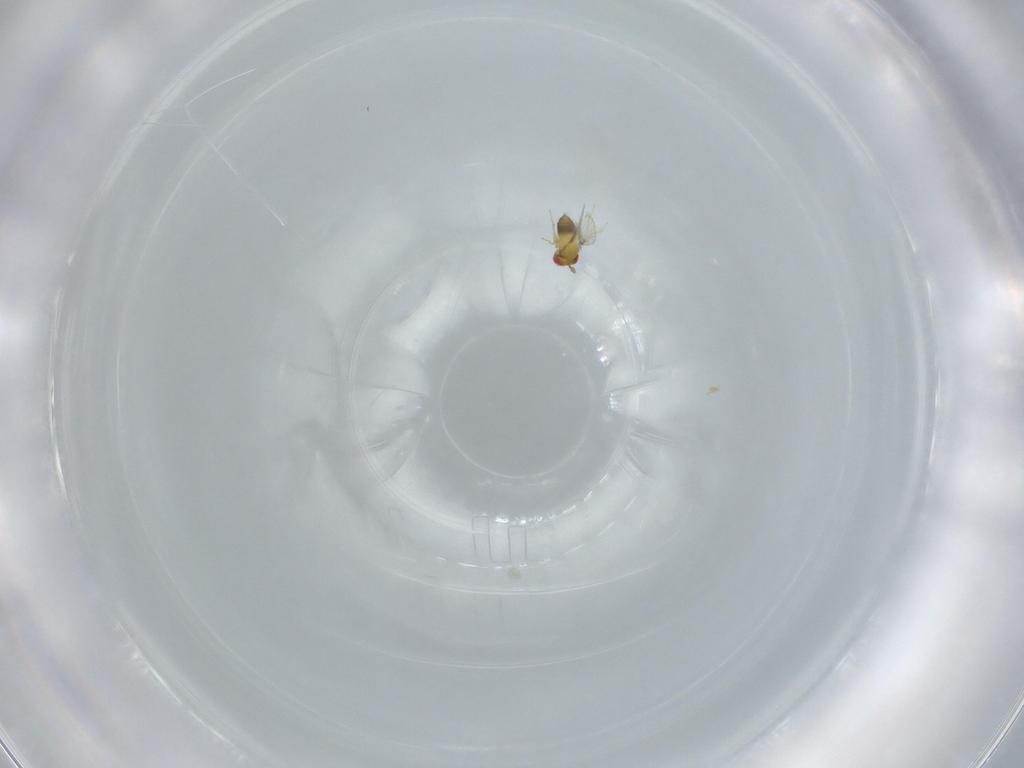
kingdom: Animalia
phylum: Arthropoda
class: Insecta
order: Hymenoptera
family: Trichogrammatidae
